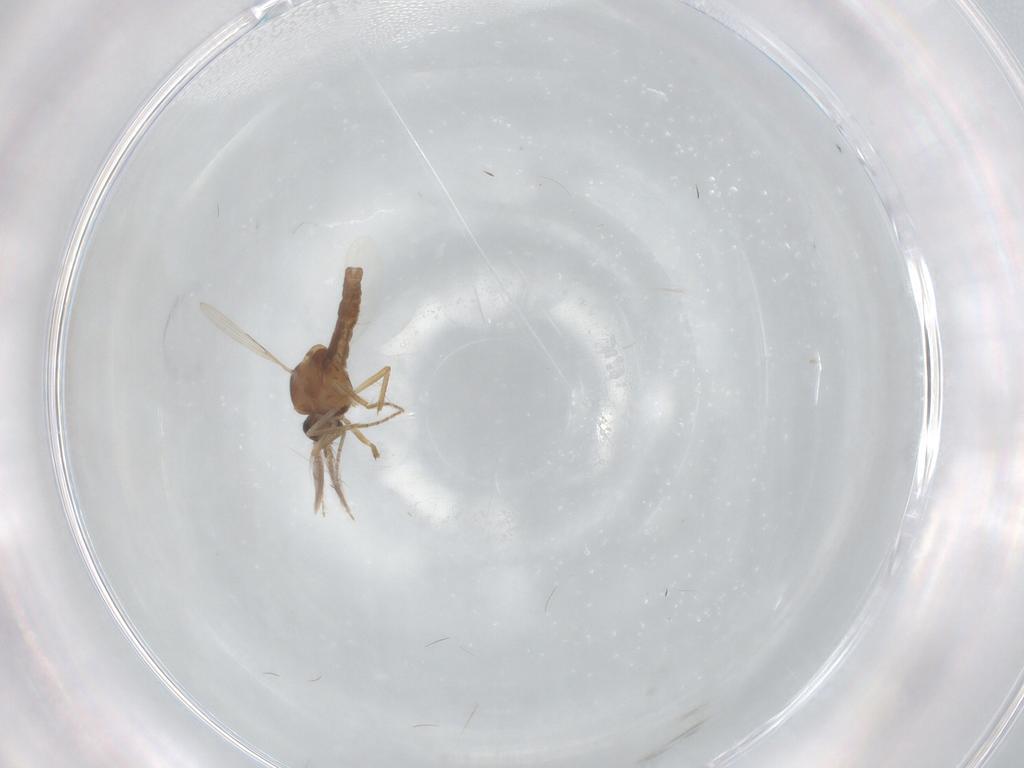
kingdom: Animalia
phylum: Arthropoda
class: Insecta
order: Diptera
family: Ceratopogonidae
